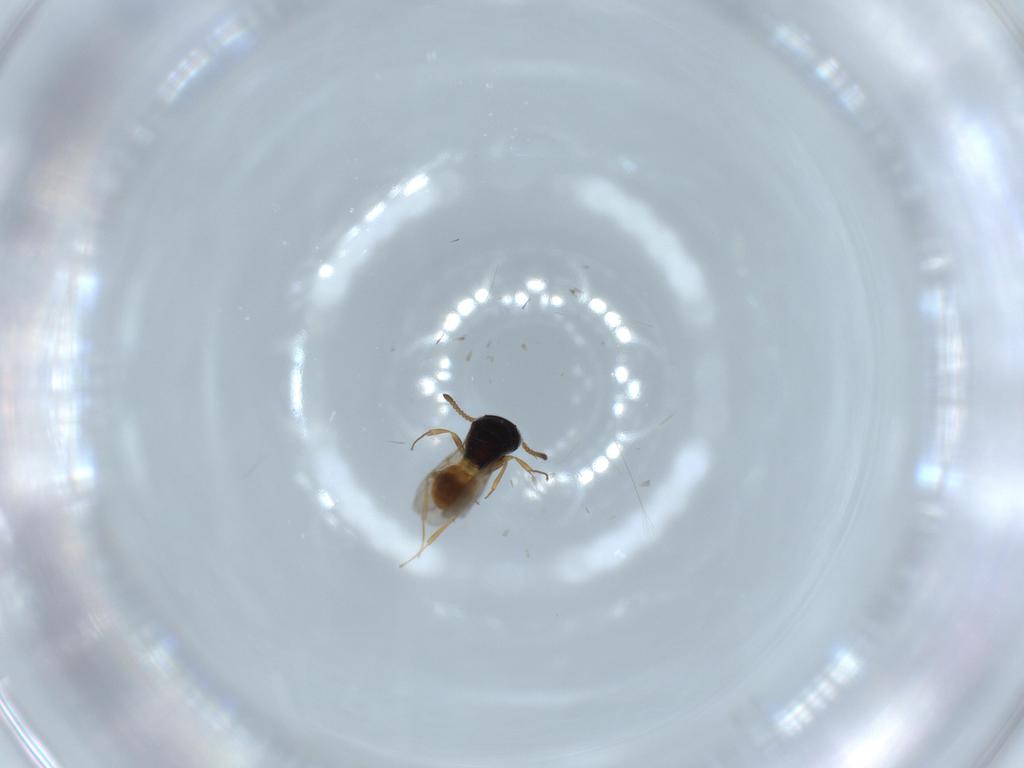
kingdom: Animalia
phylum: Arthropoda
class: Insecta
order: Hymenoptera
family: Scelionidae
